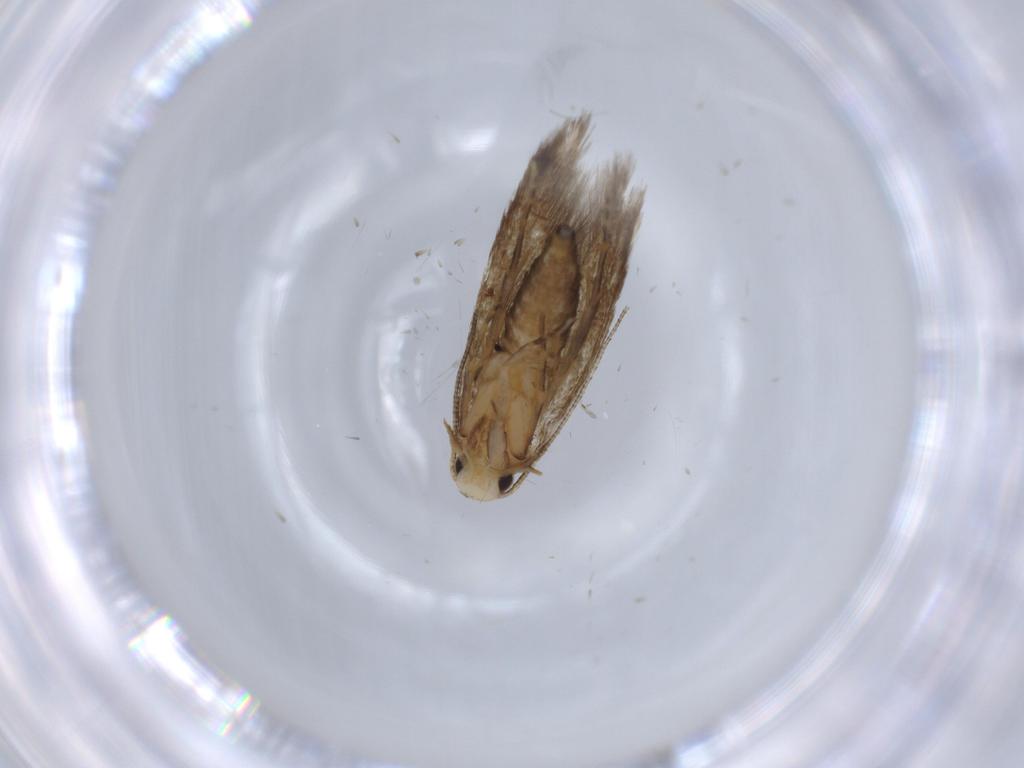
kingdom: Animalia
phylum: Arthropoda
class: Insecta
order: Lepidoptera
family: Tineidae
